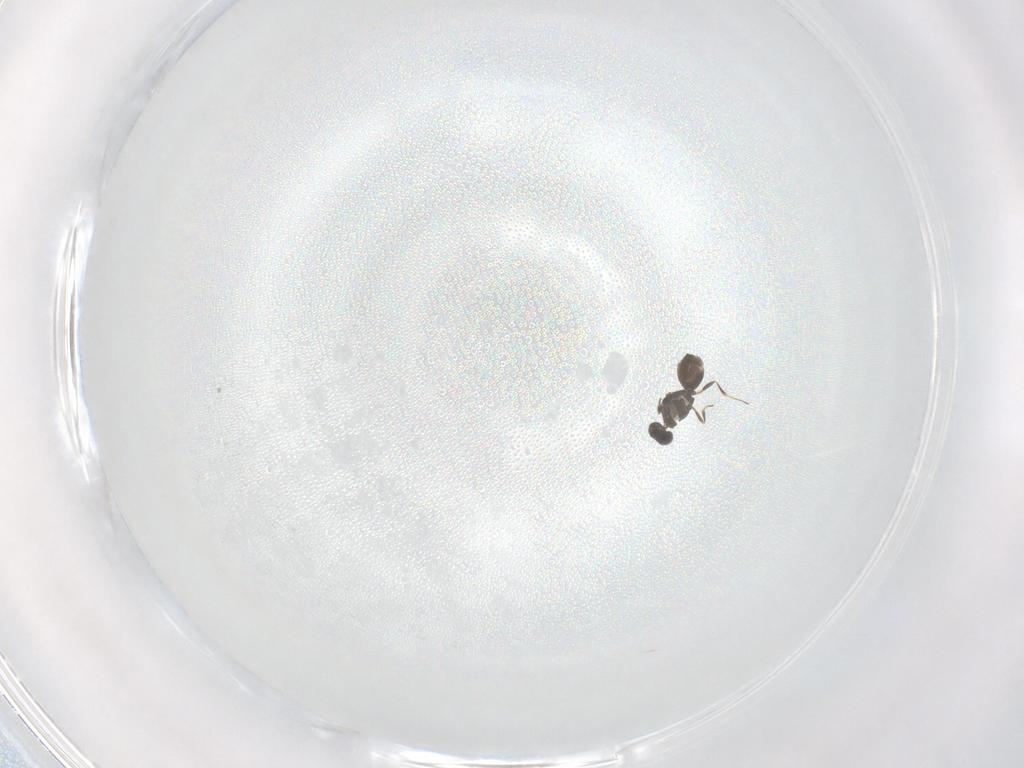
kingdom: Animalia
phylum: Arthropoda
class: Insecta
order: Hymenoptera
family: Scelionidae
